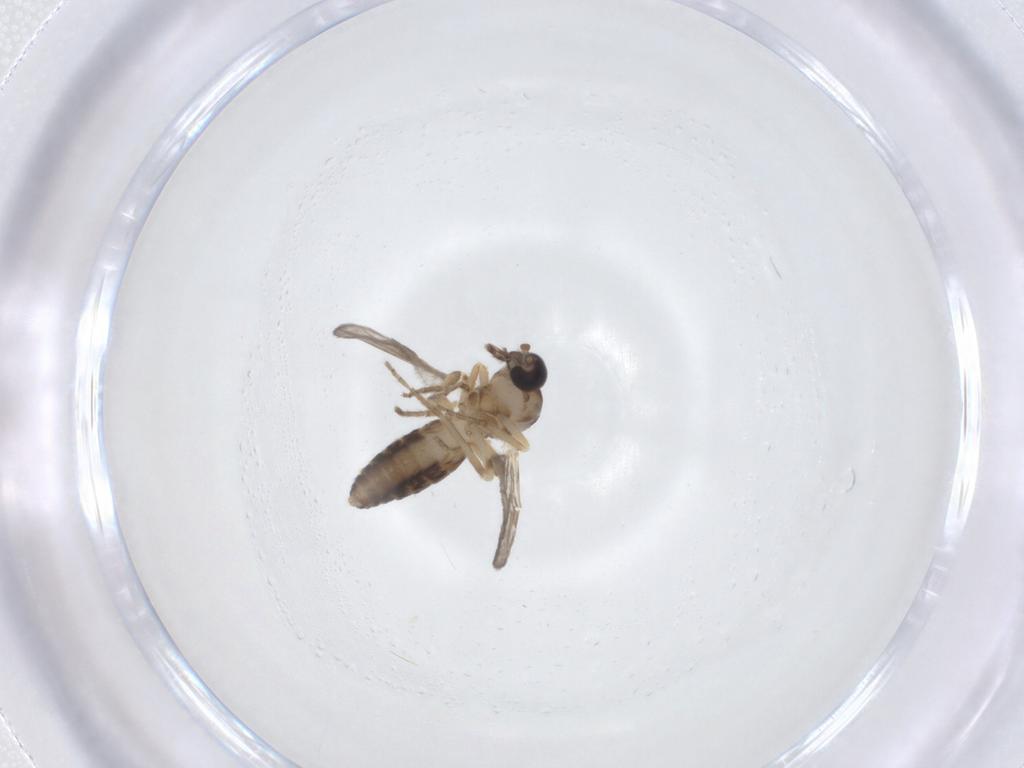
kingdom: Animalia
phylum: Arthropoda
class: Insecta
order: Diptera
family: Ceratopogonidae
